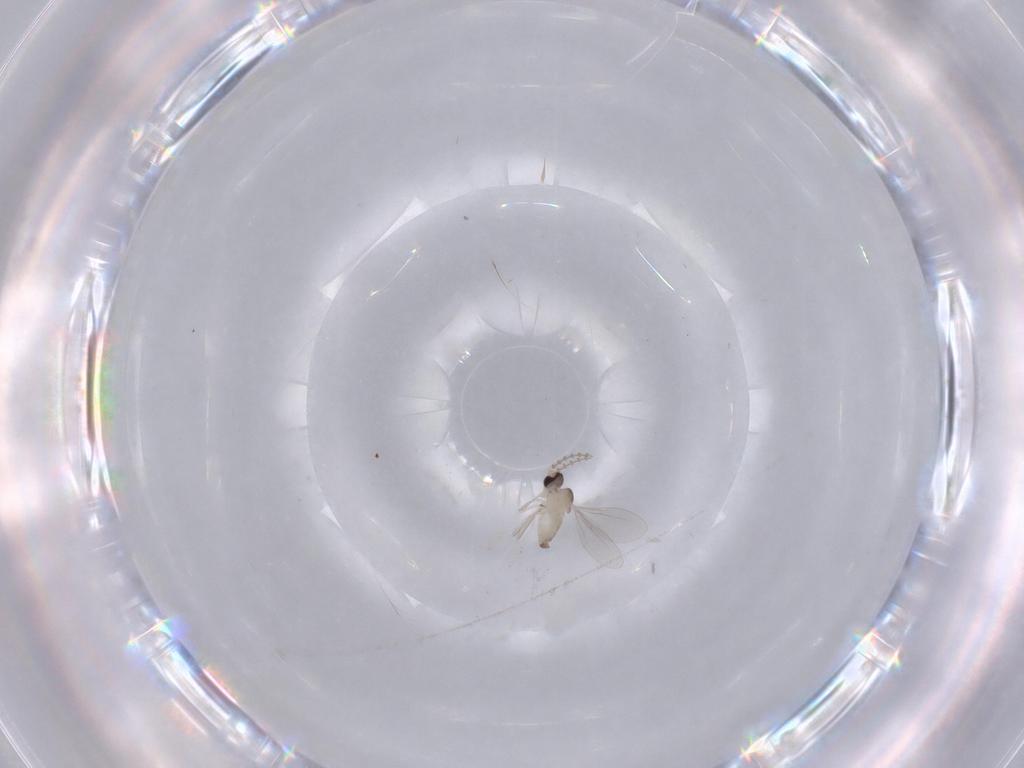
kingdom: Animalia
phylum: Arthropoda
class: Insecta
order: Diptera
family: Cecidomyiidae
